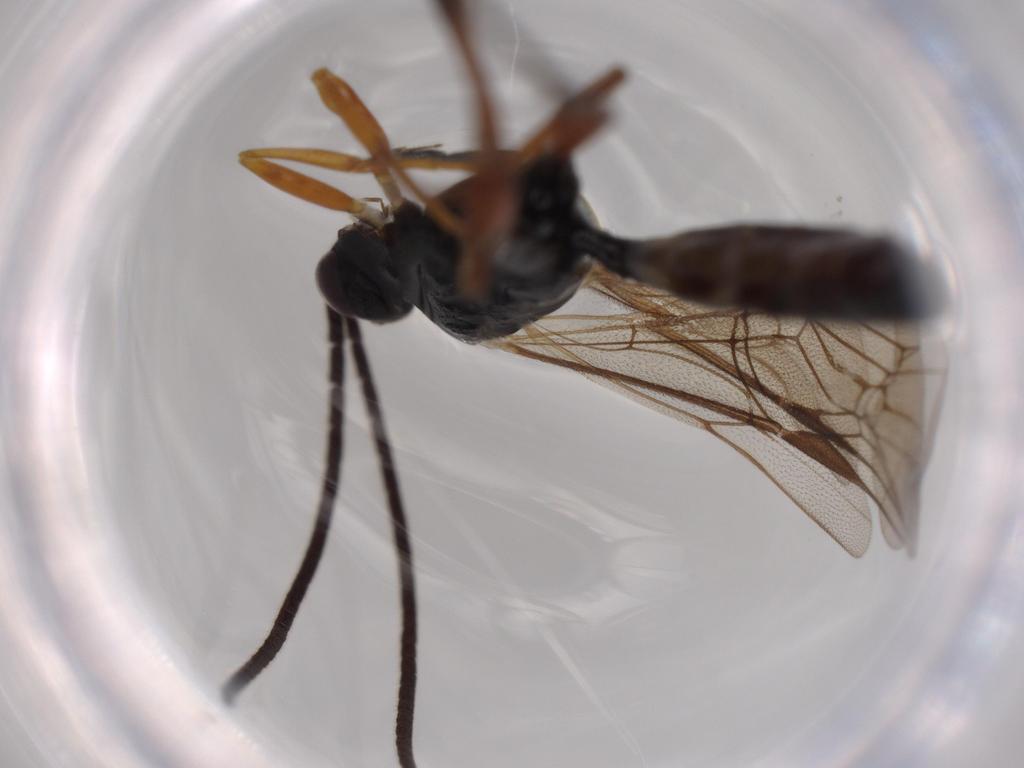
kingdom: Animalia
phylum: Arthropoda
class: Insecta
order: Hymenoptera
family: Ichneumonidae
